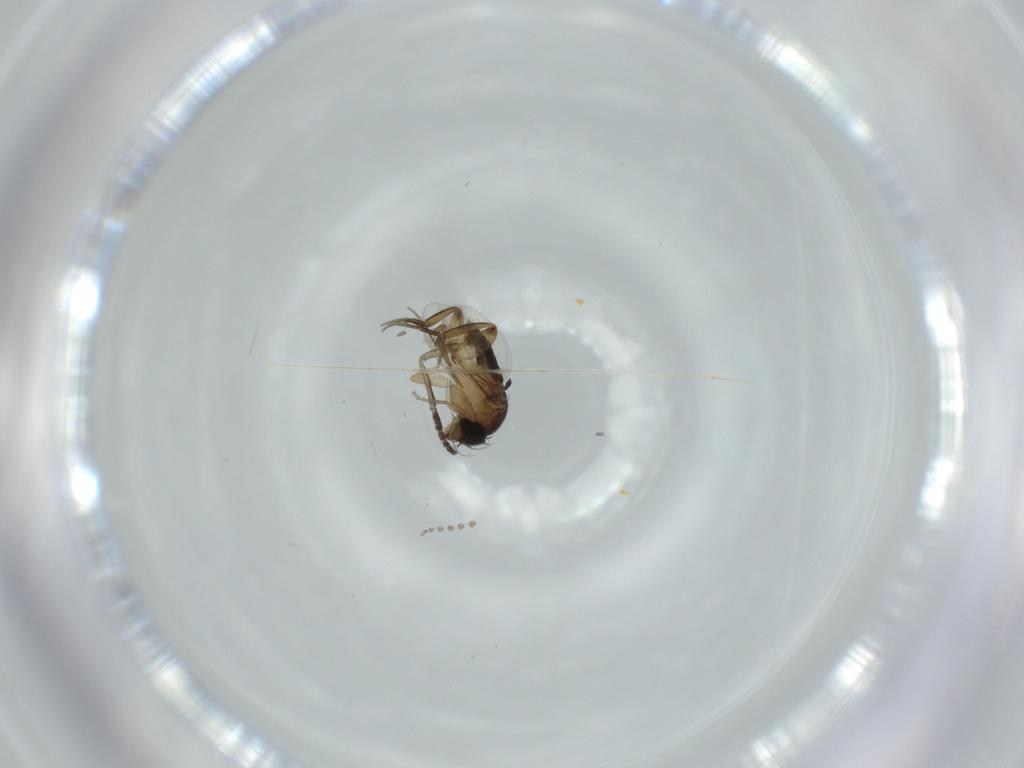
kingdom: Animalia
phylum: Arthropoda
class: Insecta
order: Diptera
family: Phoridae
